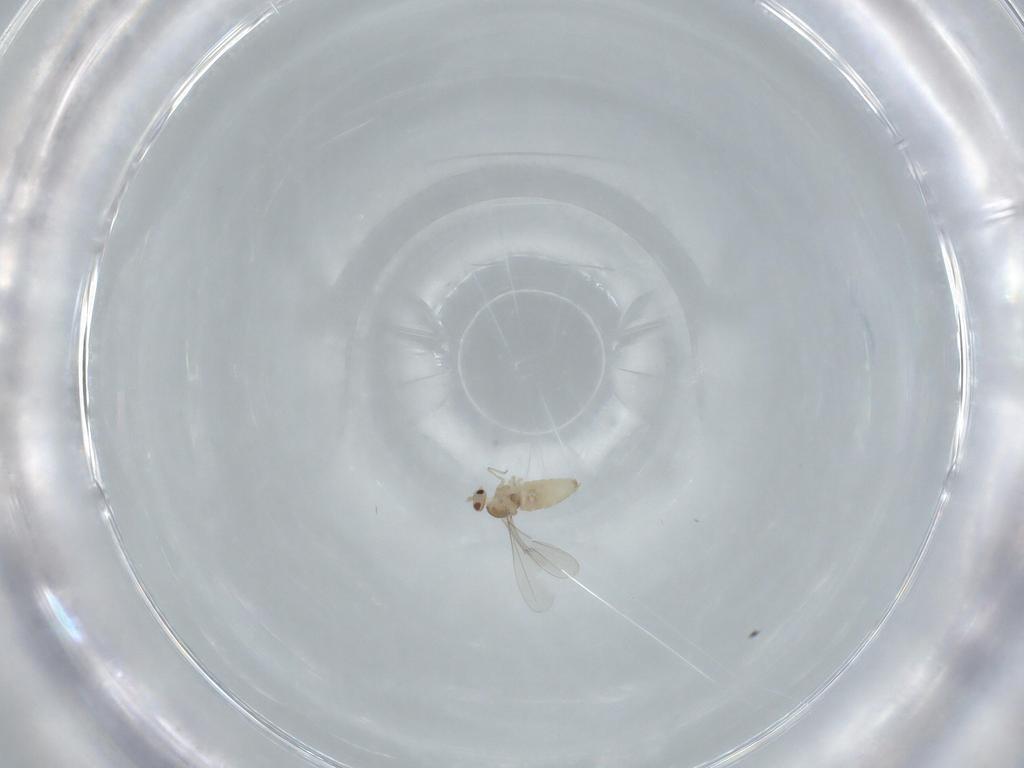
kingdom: Animalia
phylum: Arthropoda
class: Insecta
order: Diptera
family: Cecidomyiidae
